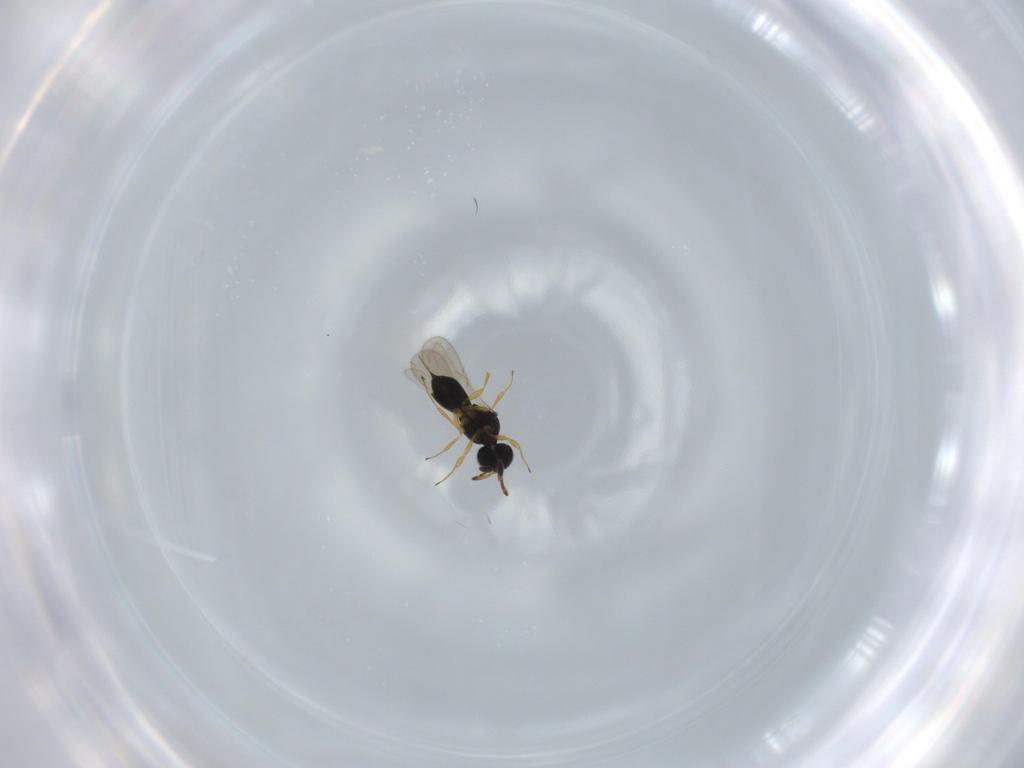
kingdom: Animalia
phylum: Arthropoda
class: Insecta
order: Hymenoptera
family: Scelionidae
